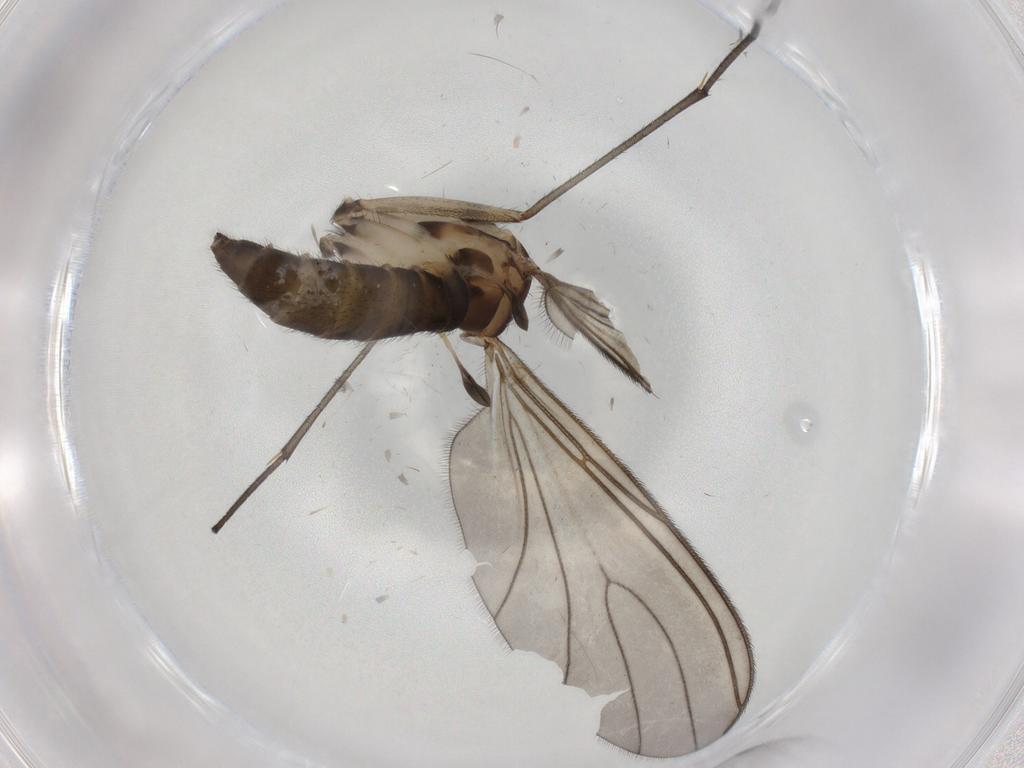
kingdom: Animalia
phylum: Arthropoda
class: Insecta
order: Diptera
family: Sciaridae
